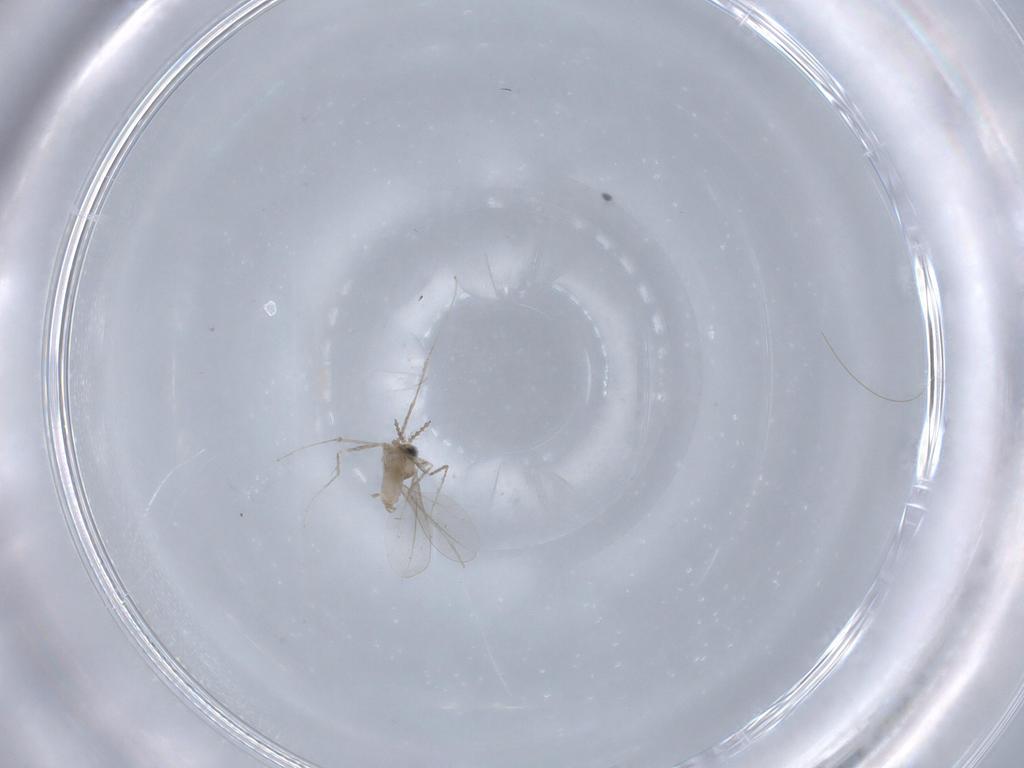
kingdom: Animalia
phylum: Arthropoda
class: Insecta
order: Diptera
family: Cecidomyiidae
